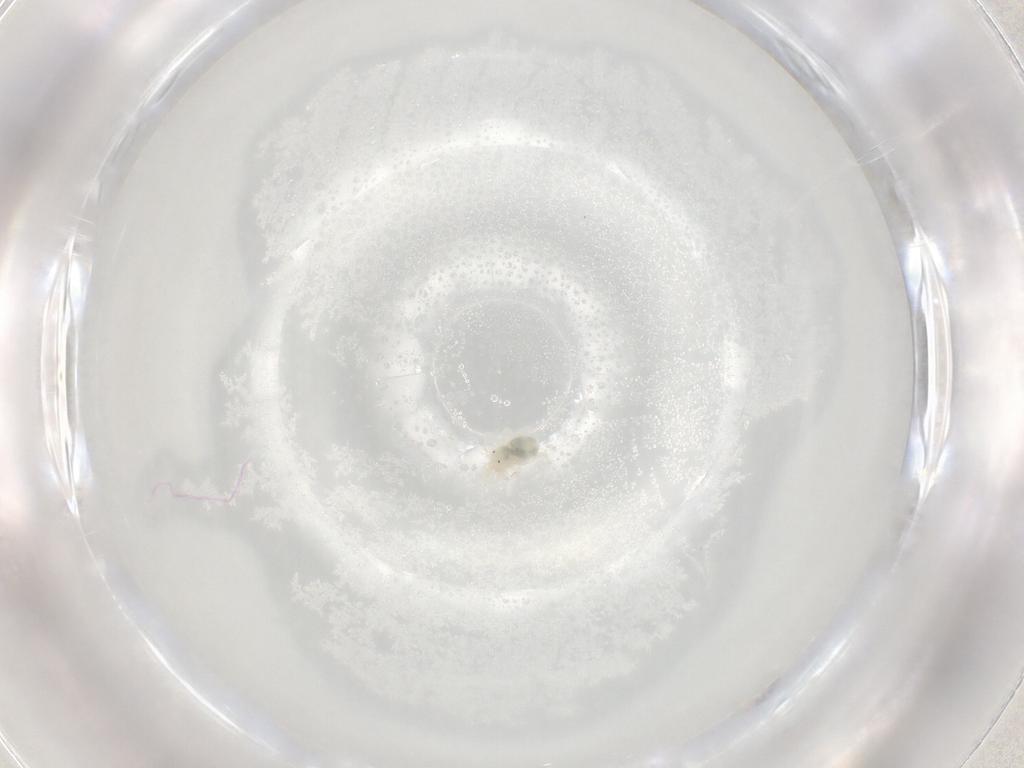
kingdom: Animalia
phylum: Arthropoda
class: Arachnida
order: Trombidiformes
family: Anystidae
